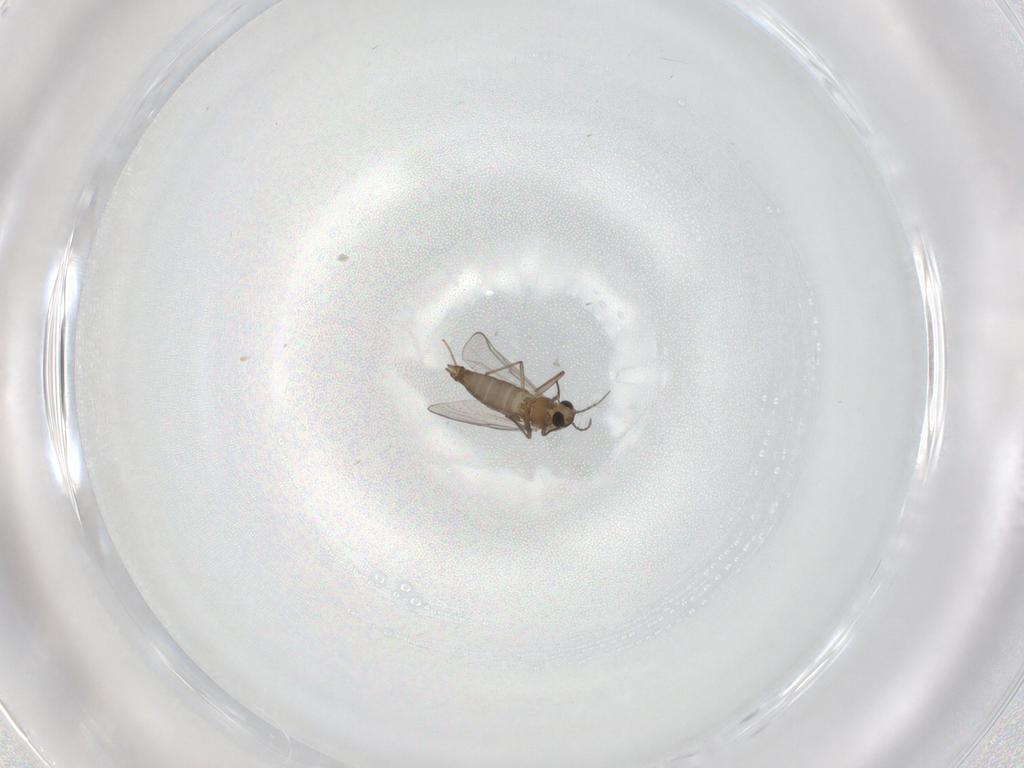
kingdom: Animalia
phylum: Arthropoda
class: Insecta
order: Diptera
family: Chironomidae
